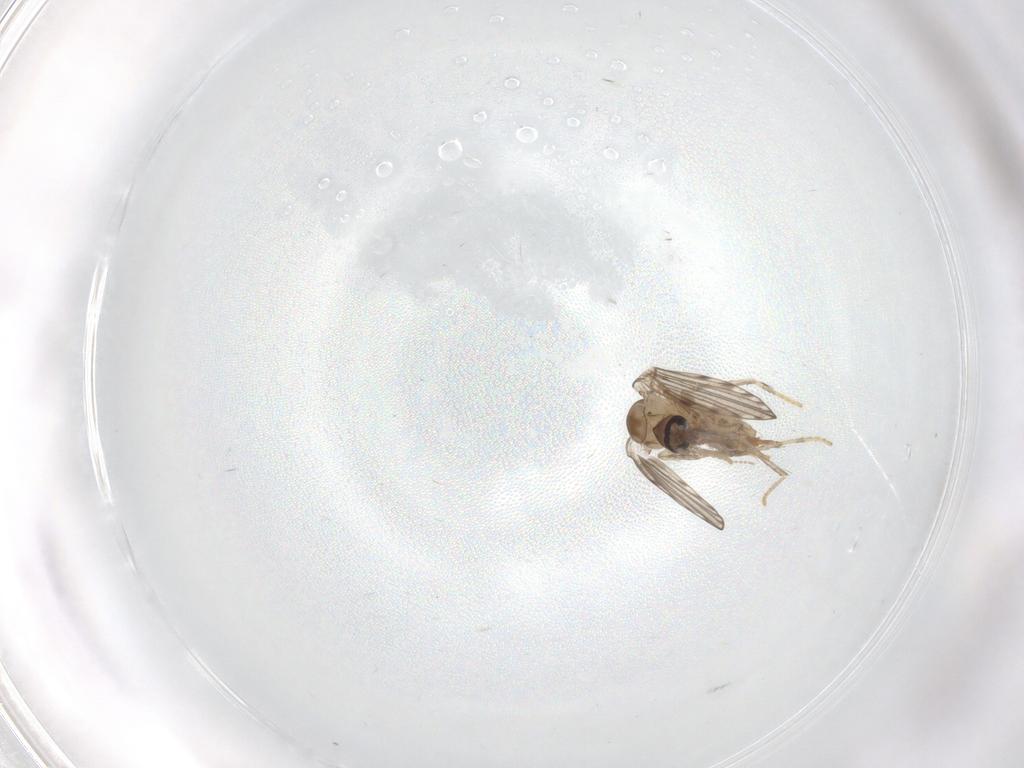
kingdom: Animalia
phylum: Arthropoda
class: Insecta
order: Diptera
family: Psychodidae
